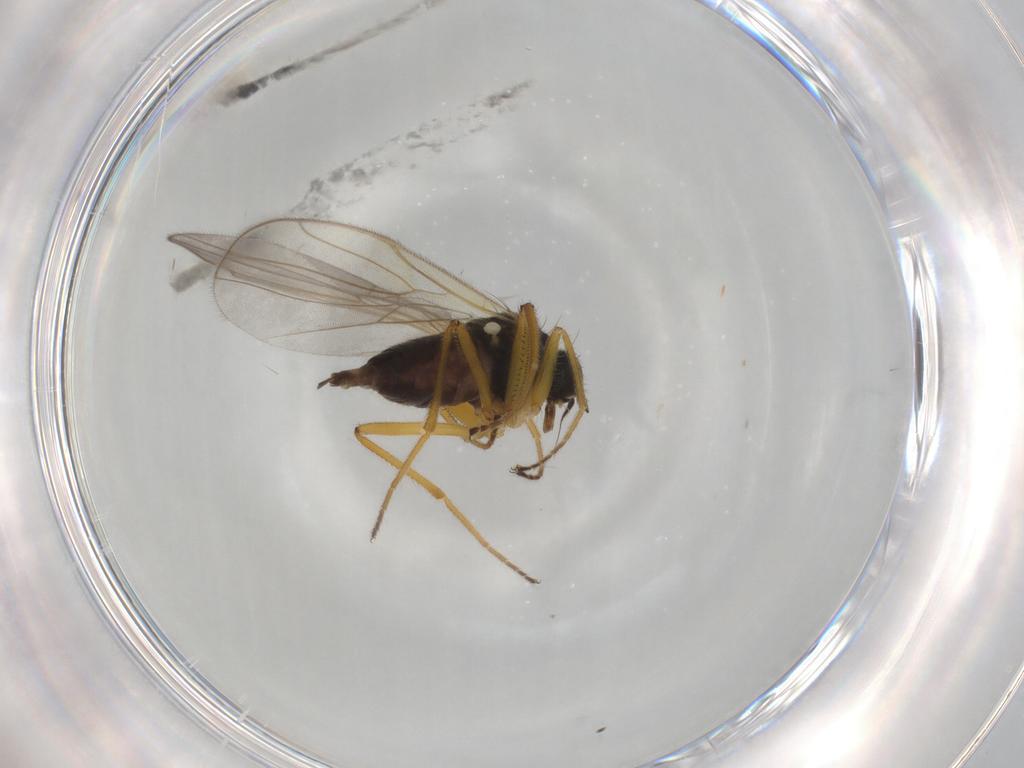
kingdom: Animalia
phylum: Arthropoda
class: Insecta
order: Diptera
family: Hybotidae
